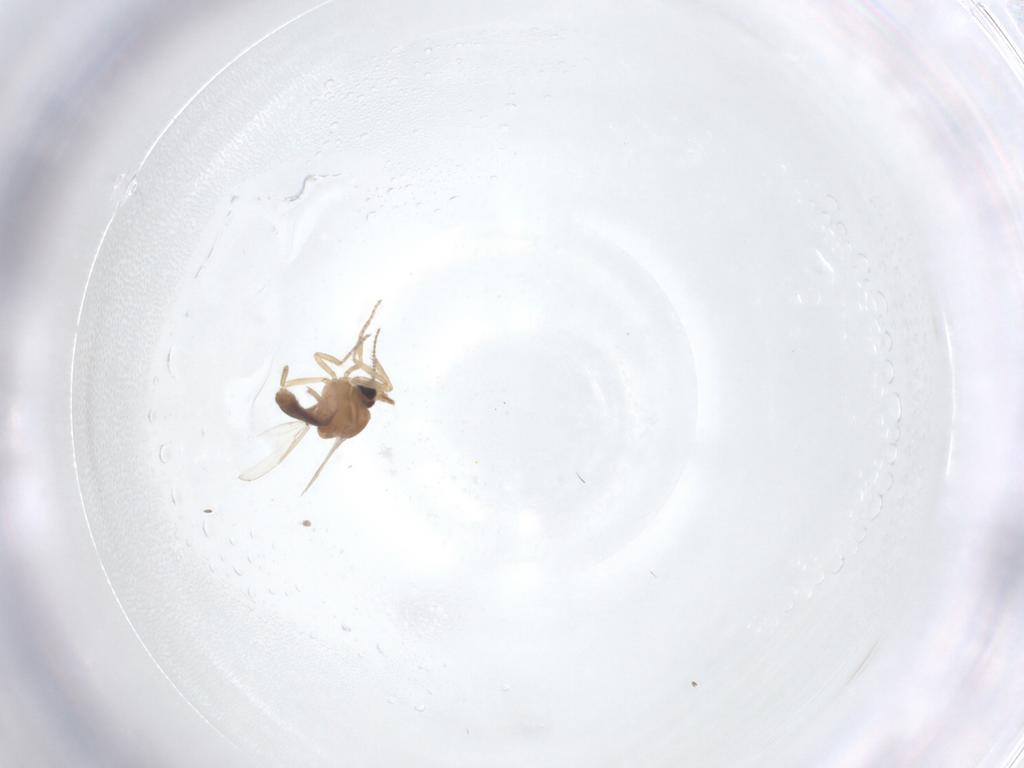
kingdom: Animalia
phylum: Arthropoda
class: Insecta
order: Diptera
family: Ceratopogonidae
